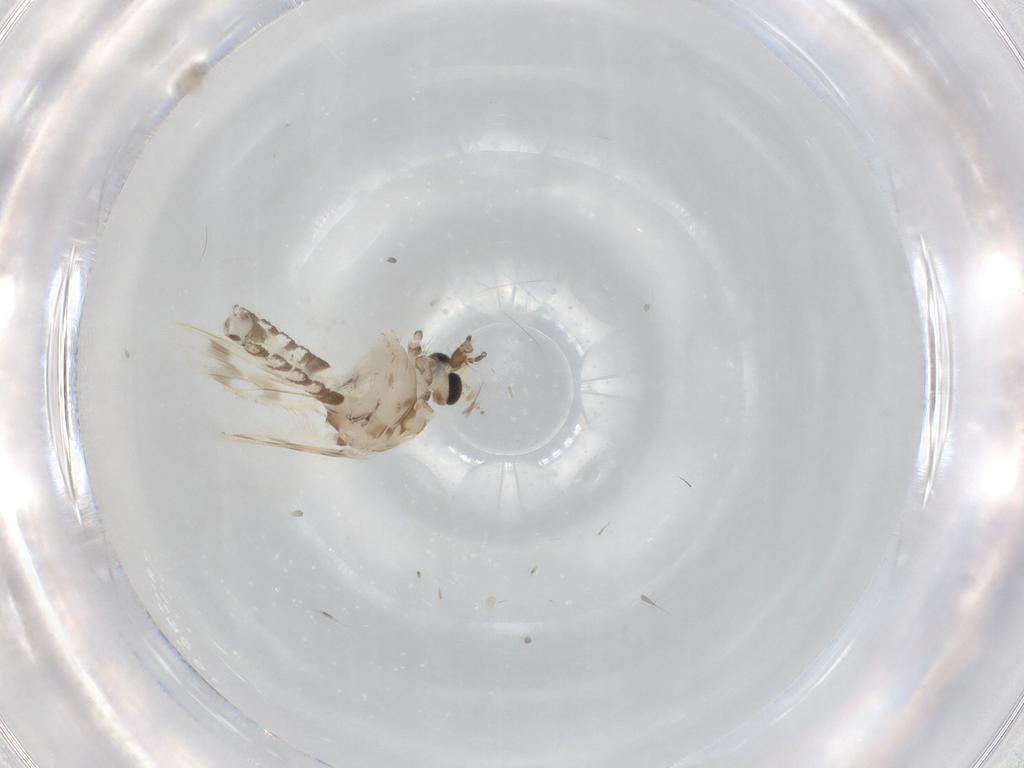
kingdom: Animalia
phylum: Arthropoda
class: Insecta
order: Diptera
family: Corethrellidae
